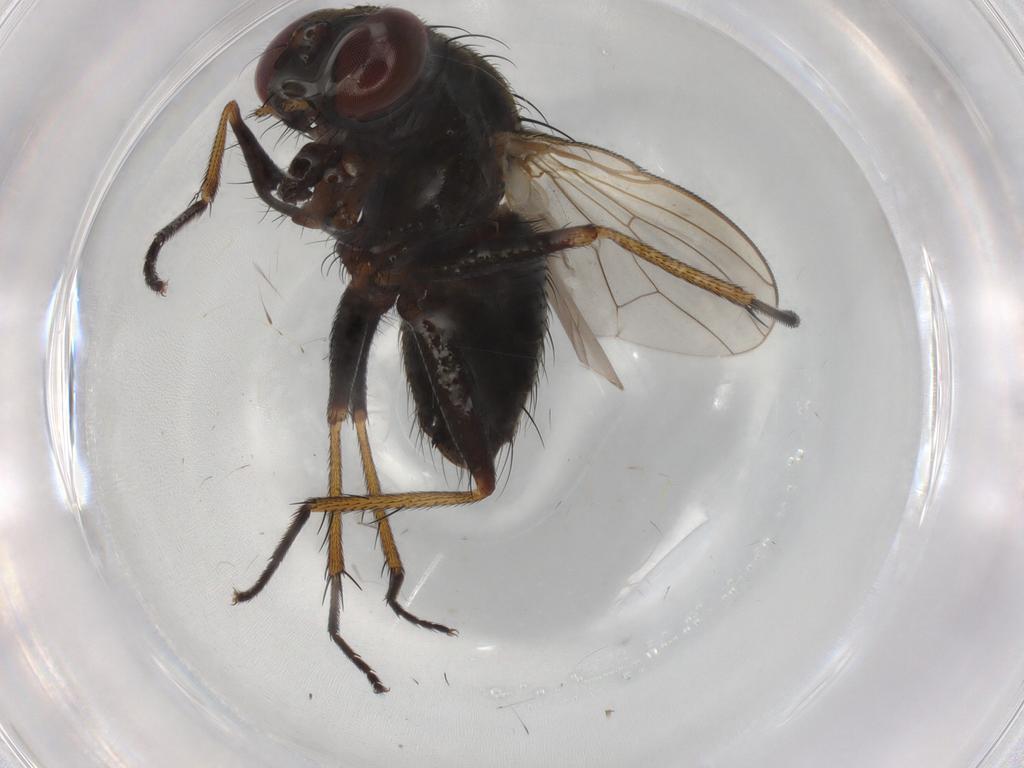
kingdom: Animalia
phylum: Arthropoda
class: Insecta
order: Diptera
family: Muscidae
